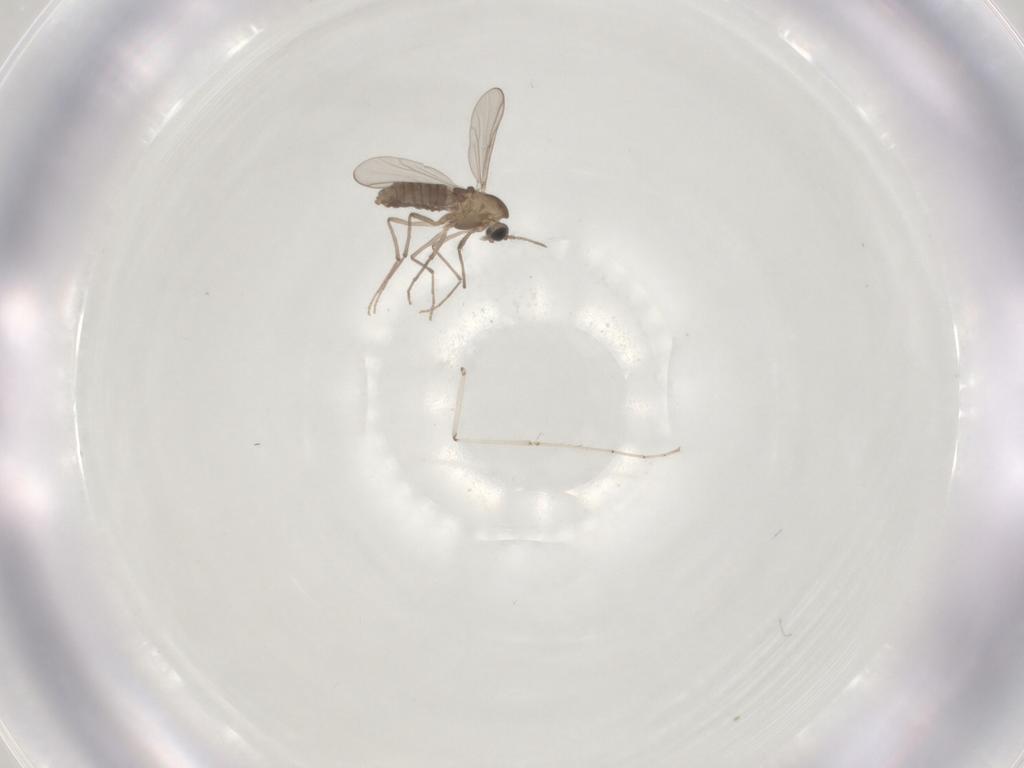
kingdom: Animalia
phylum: Arthropoda
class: Insecta
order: Diptera
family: Chironomidae
